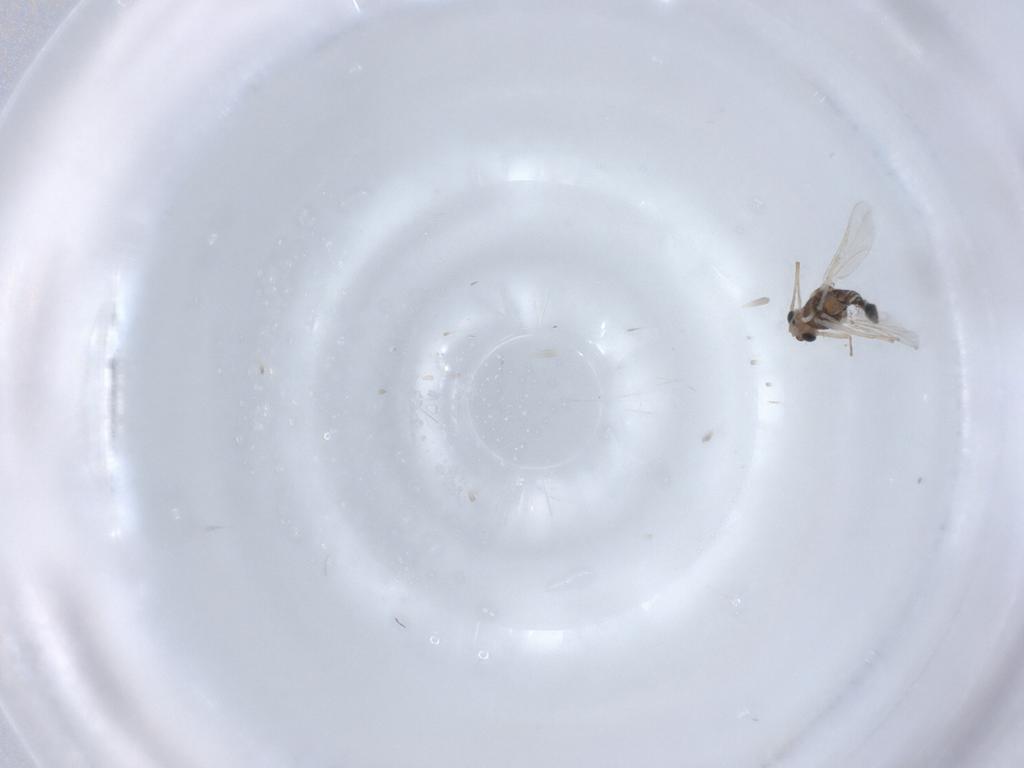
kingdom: Animalia
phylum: Arthropoda
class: Insecta
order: Diptera
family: Chironomidae
